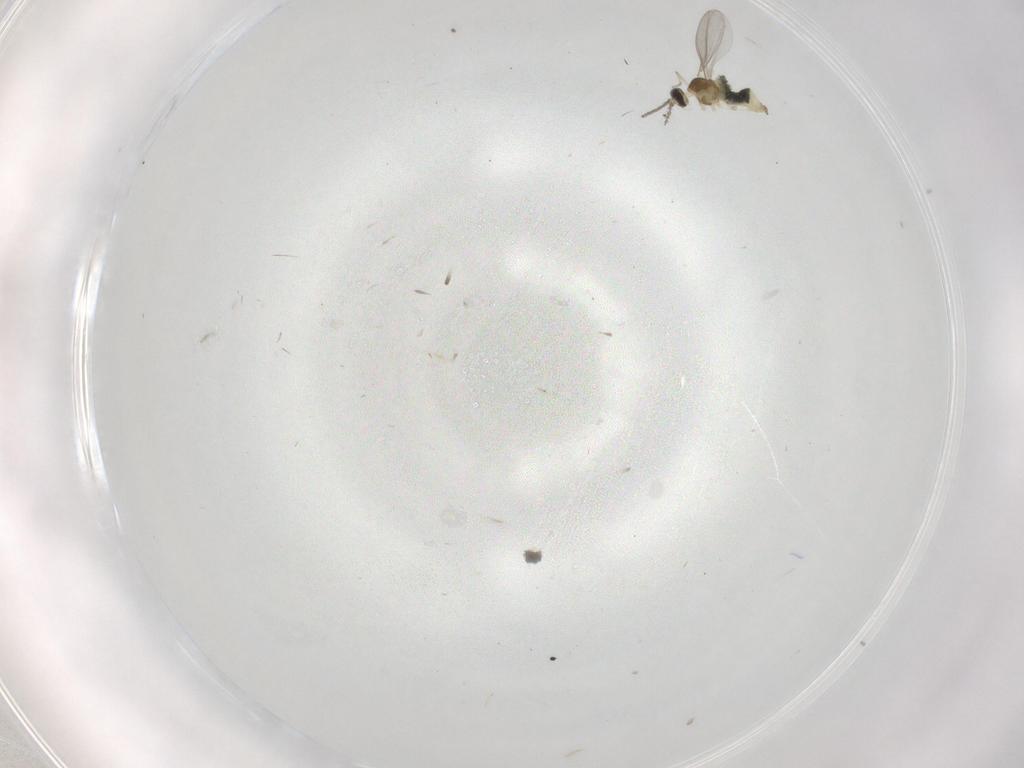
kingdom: Animalia
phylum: Arthropoda
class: Insecta
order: Diptera
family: Cecidomyiidae
